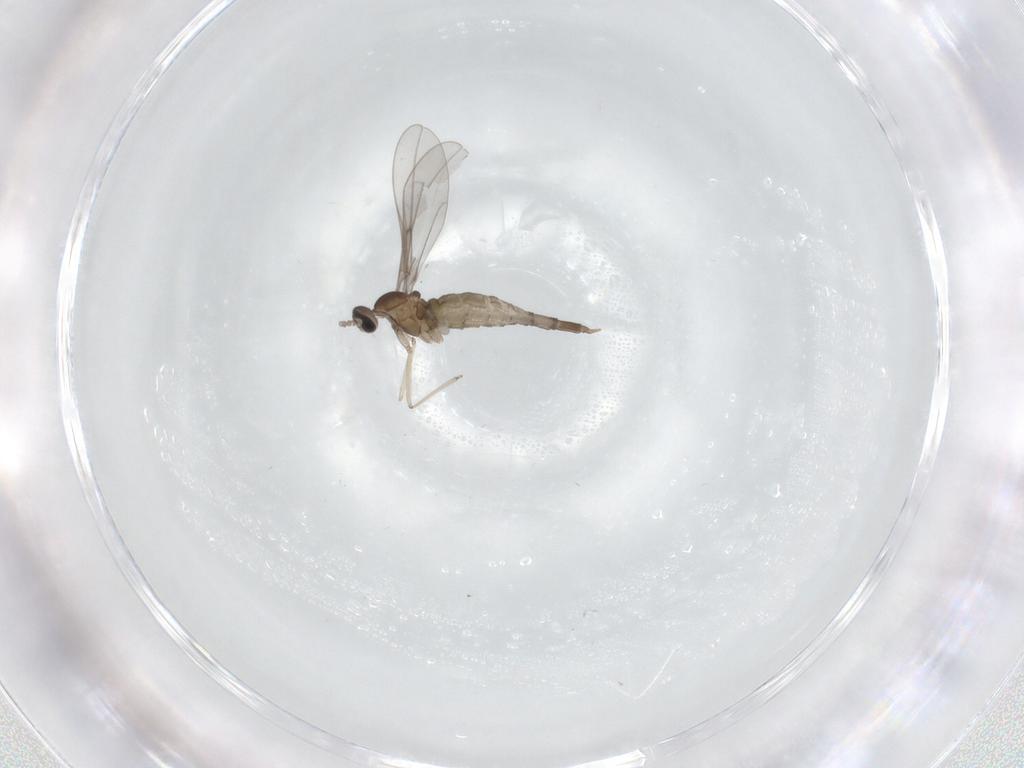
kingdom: Animalia
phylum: Arthropoda
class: Insecta
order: Diptera
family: Cecidomyiidae
